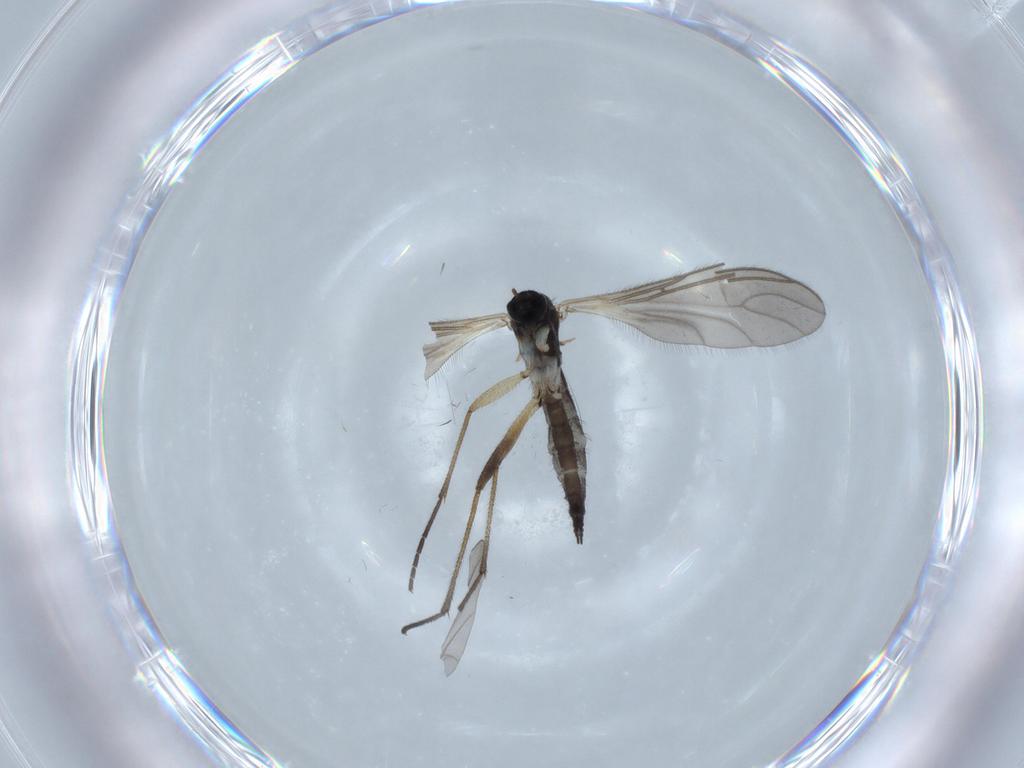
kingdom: Animalia
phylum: Arthropoda
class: Insecta
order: Diptera
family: Sciaridae
